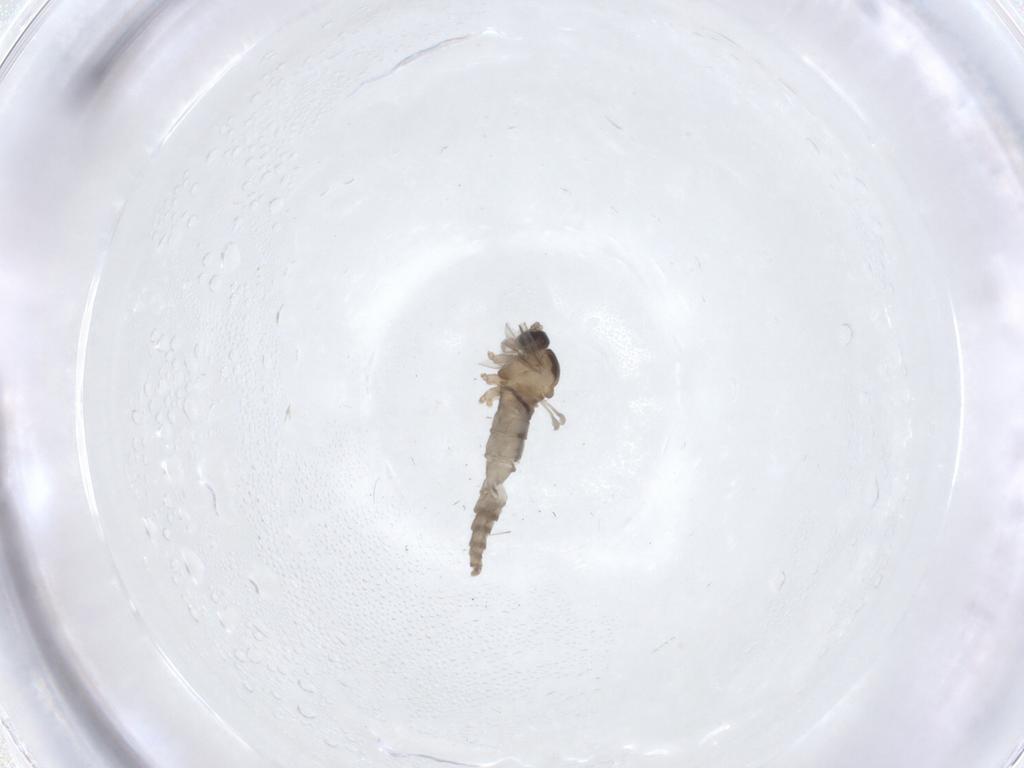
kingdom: Animalia
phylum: Arthropoda
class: Insecta
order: Diptera
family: Cecidomyiidae
